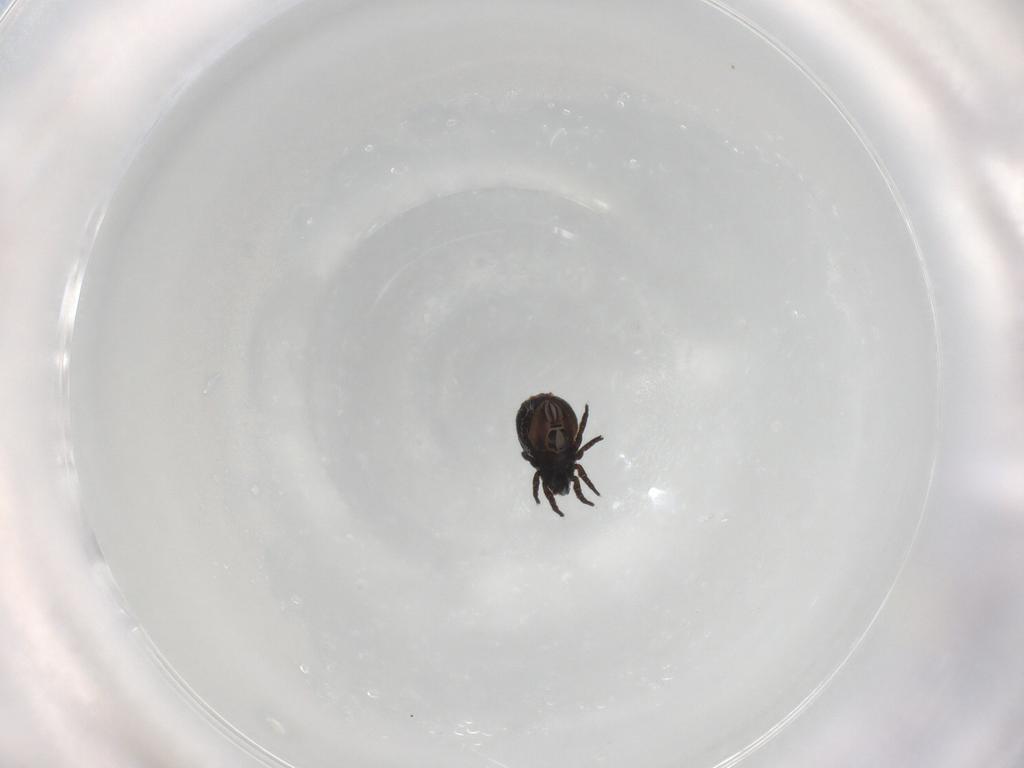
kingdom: Animalia
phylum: Arthropoda
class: Arachnida
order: Sarcoptiformes
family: Crotoniidae
